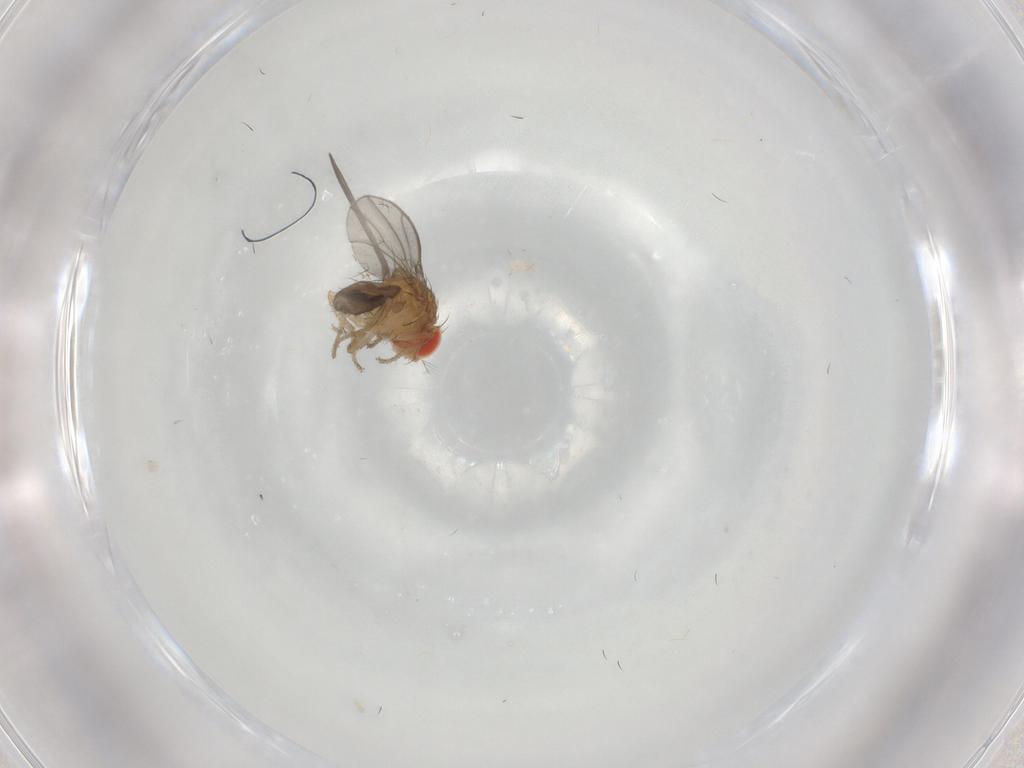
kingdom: Animalia
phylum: Arthropoda
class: Insecta
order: Diptera
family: Drosophilidae
